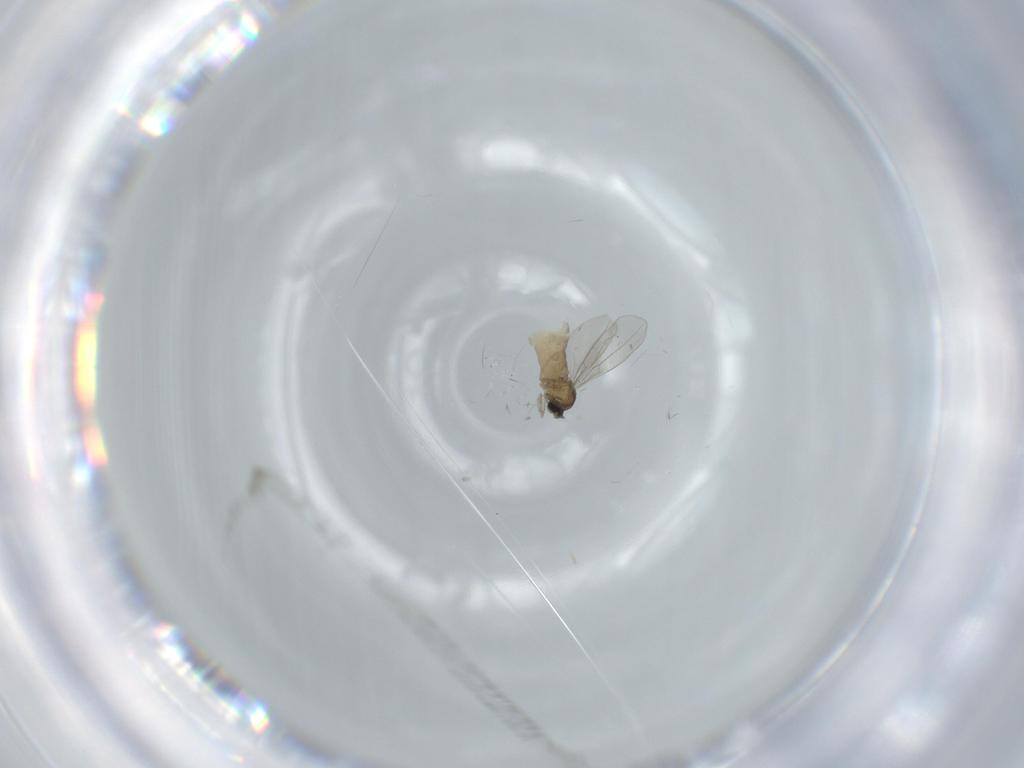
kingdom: Animalia
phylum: Arthropoda
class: Insecta
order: Diptera
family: Cecidomyiidae
